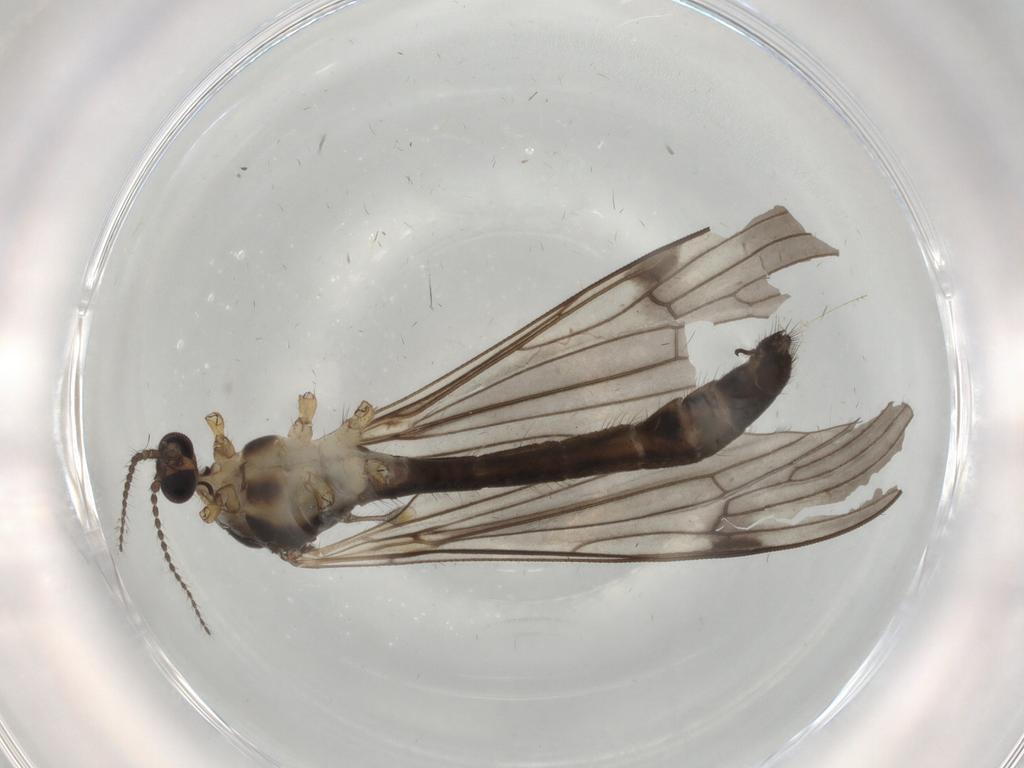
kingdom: Animalia
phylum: Arthropoda
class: Insecta
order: Diptera
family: Limoniidae
